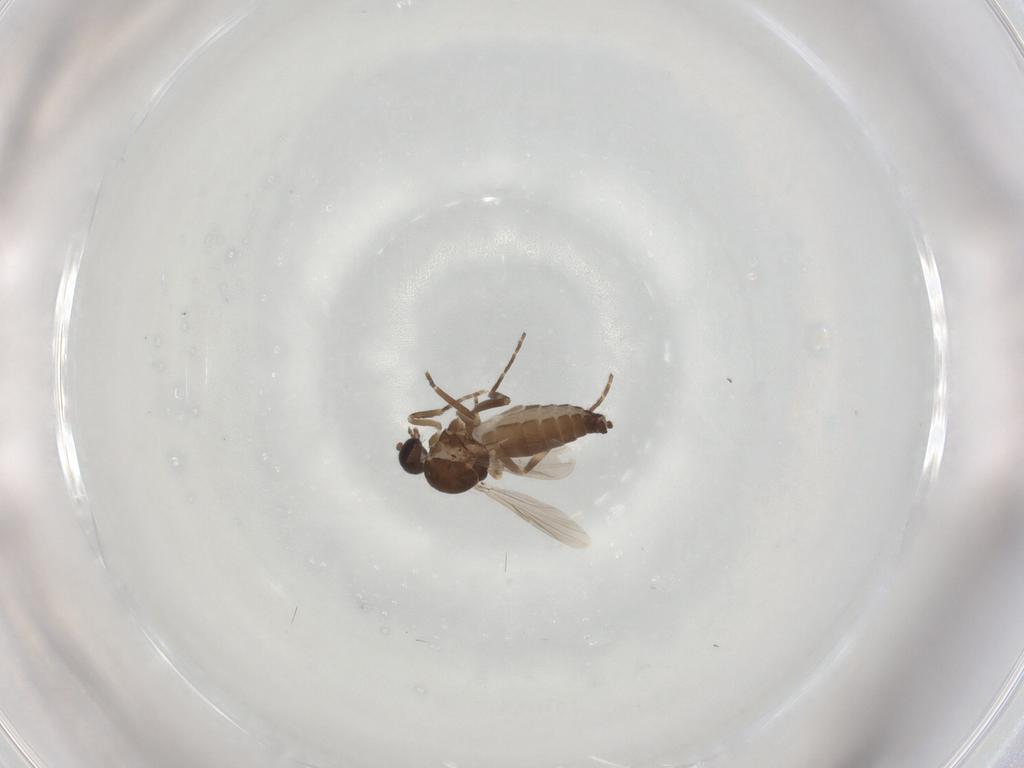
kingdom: Animalia
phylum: Arthropoda
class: Insecta
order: Diptera
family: Ceratopogonidae
